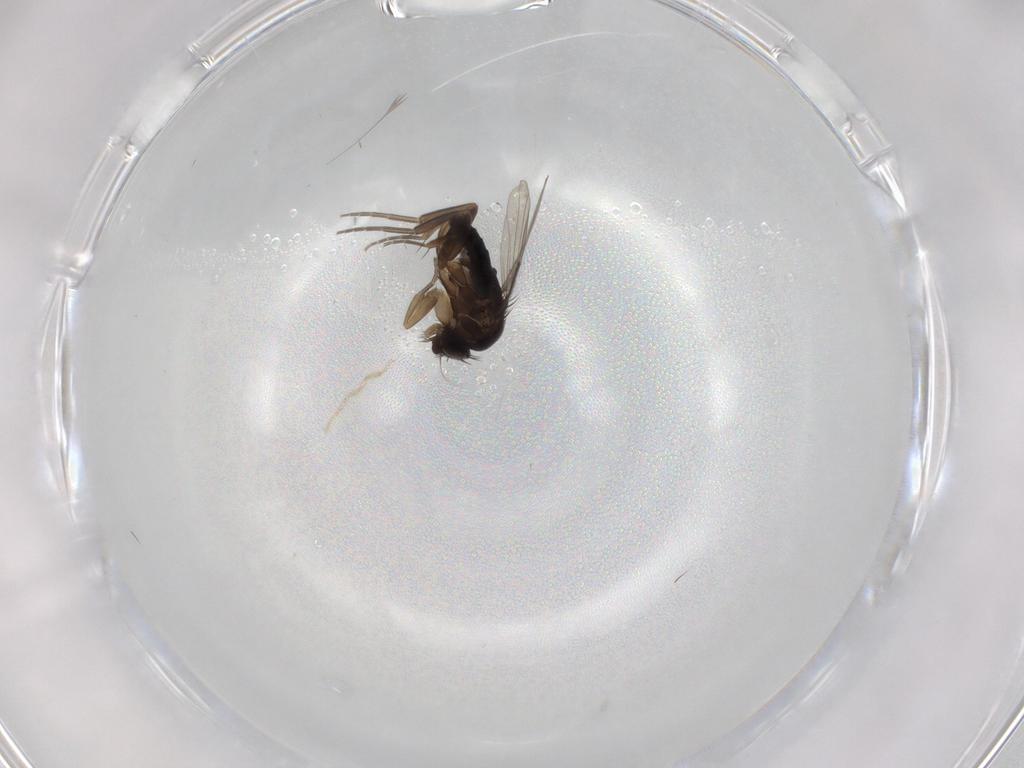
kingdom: Animalia
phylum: Arthropoda
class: Insecta
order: Diptera
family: Phoridae
